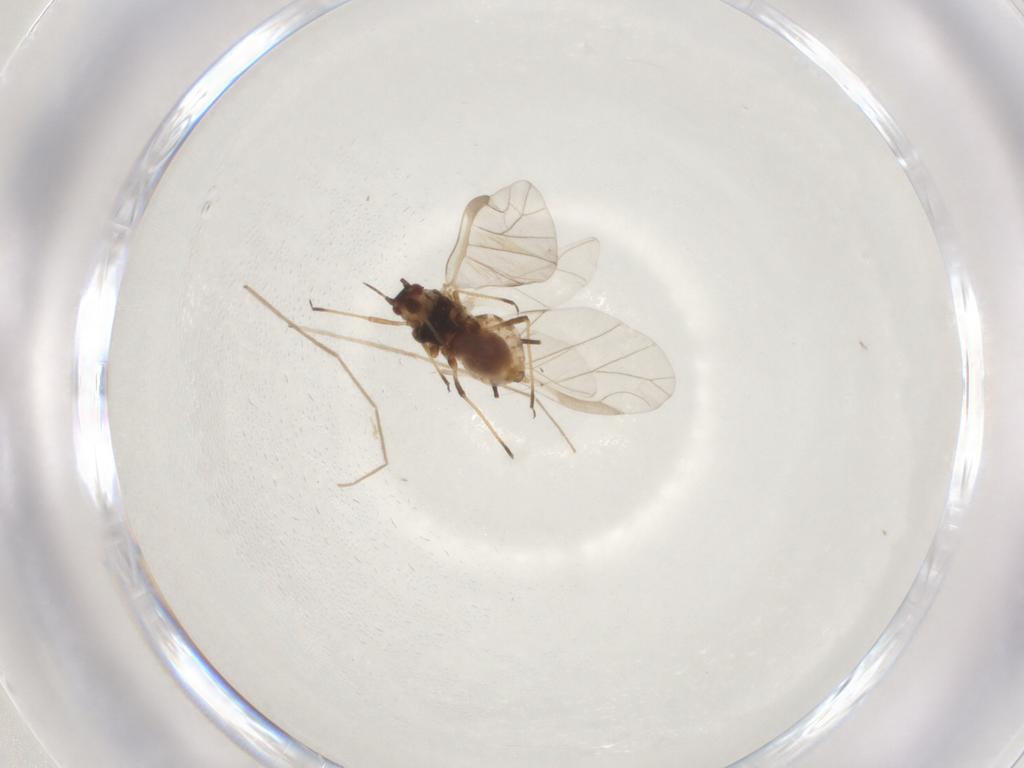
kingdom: Animalia
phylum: Arthropoda
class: Insecta
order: Hemiptera
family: Aphididae
